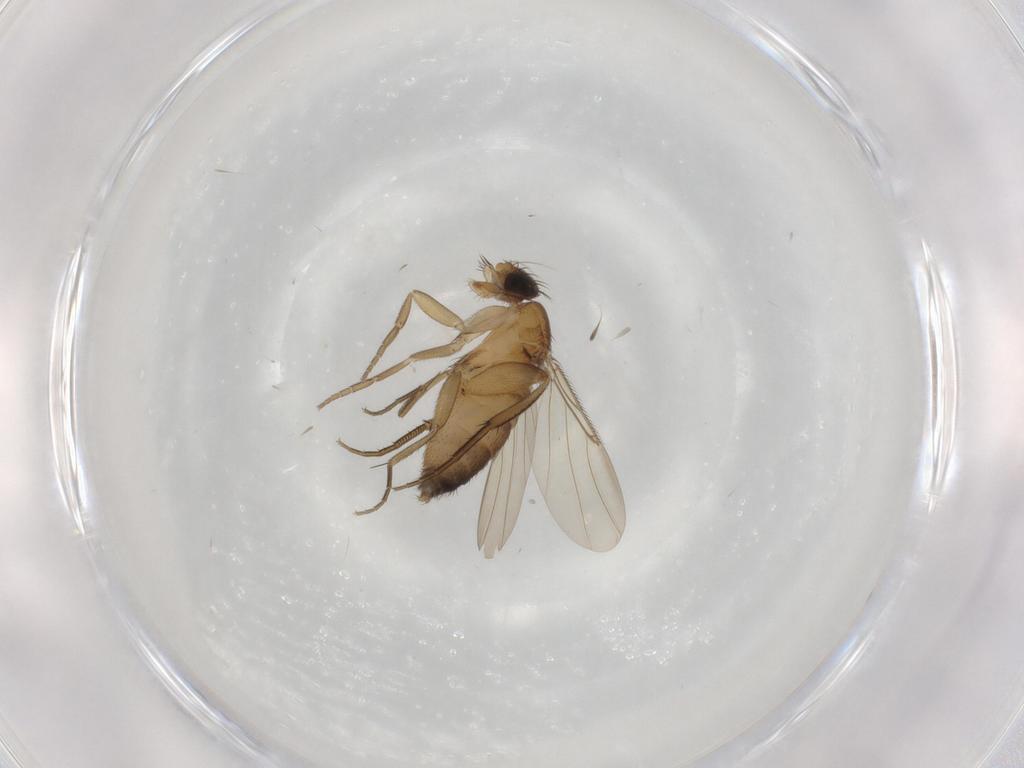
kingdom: Animalia
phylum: Arthropoda
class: Insecta
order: Diptera
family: Phoridae
